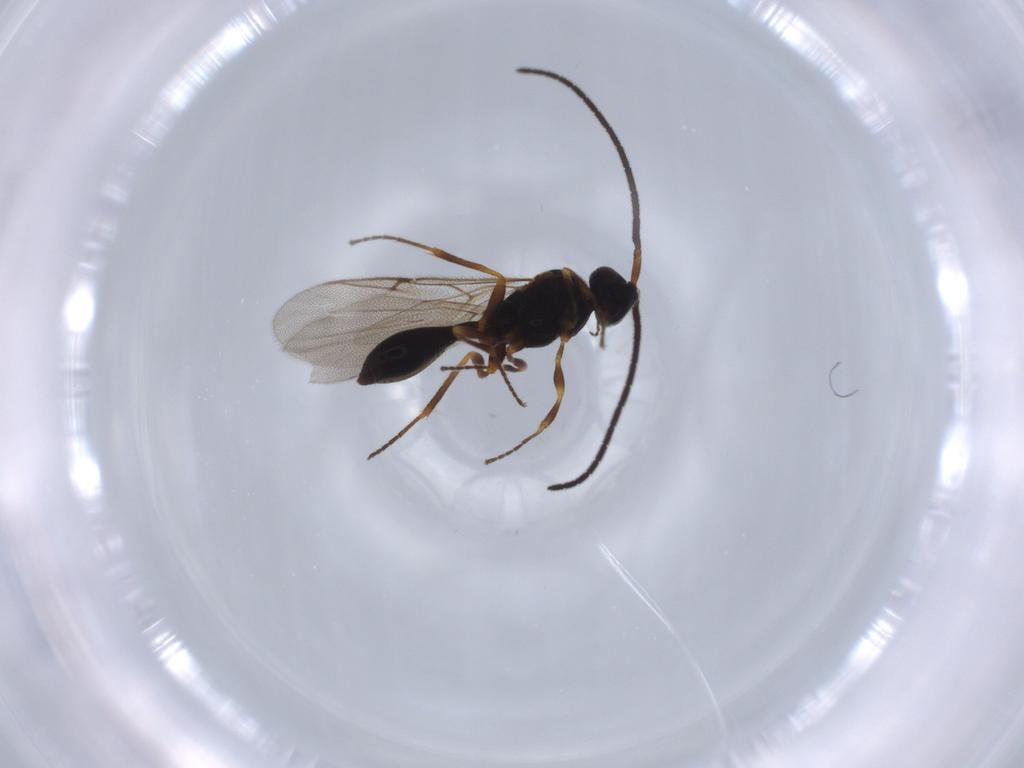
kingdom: Animalia
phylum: Arthropoda
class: Insecta
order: Hymenoptera
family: Diapriidae
